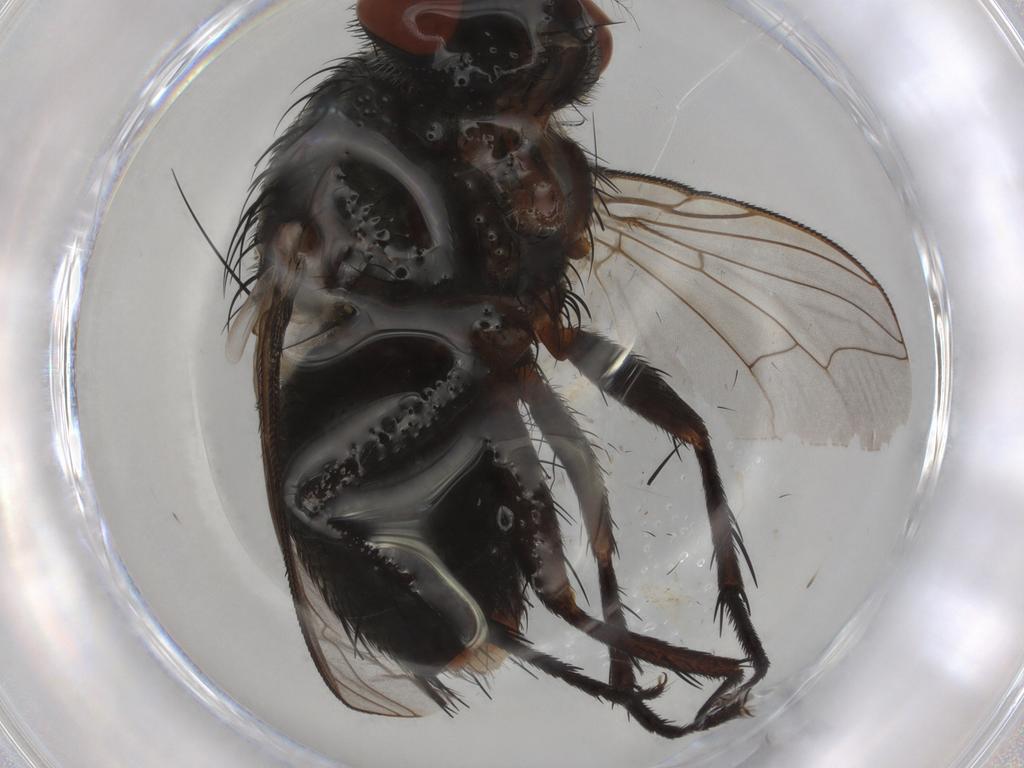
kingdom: Animalia
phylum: Arthropoda
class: Insecta
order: Diptera
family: Sarcophagidae
